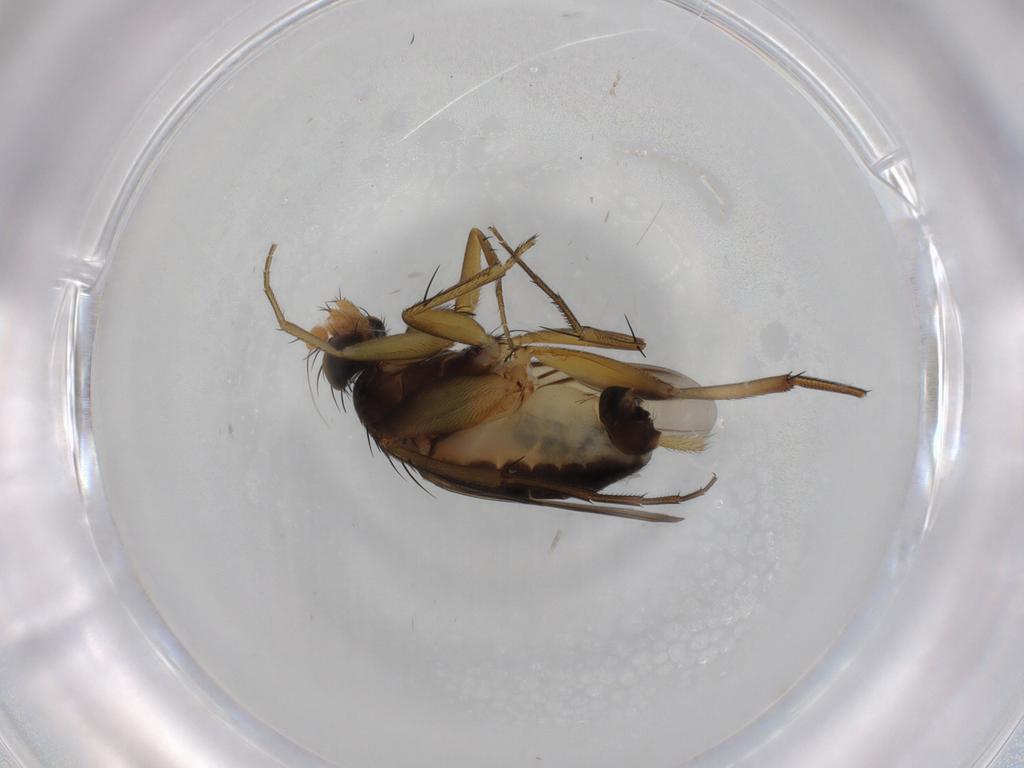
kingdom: Animalia
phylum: Arthropoda
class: Insecta
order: Diptera
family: Phoridae
